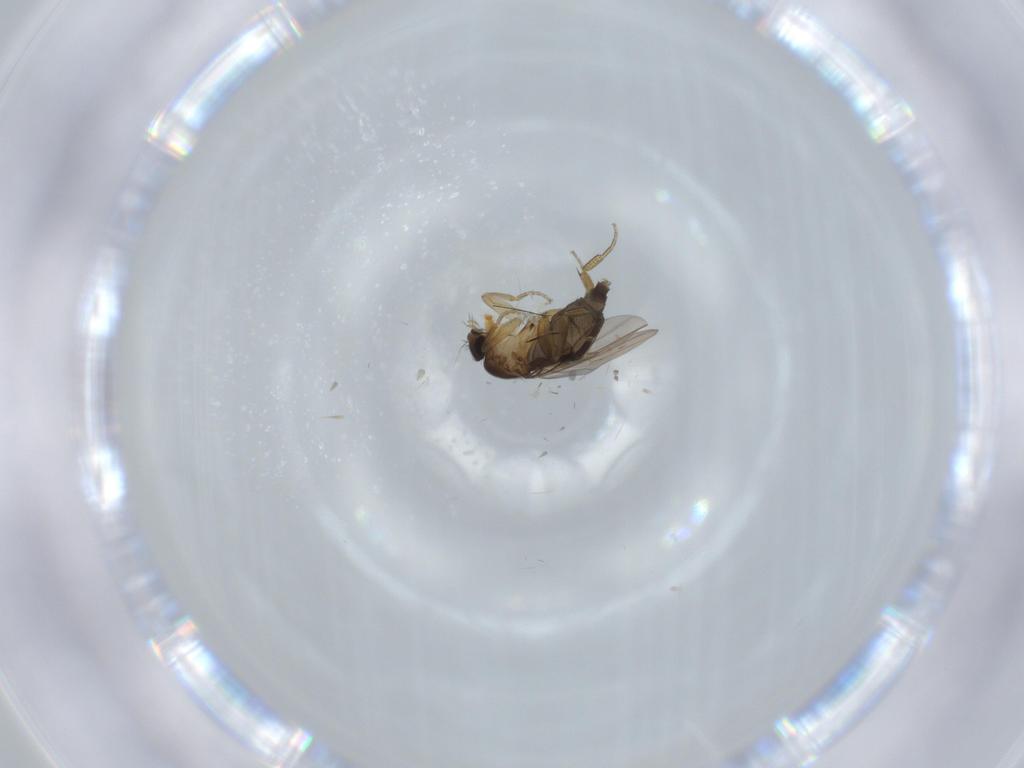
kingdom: Animalia
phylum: Arthropoda
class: Insecta
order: Diptera
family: Phoridae
